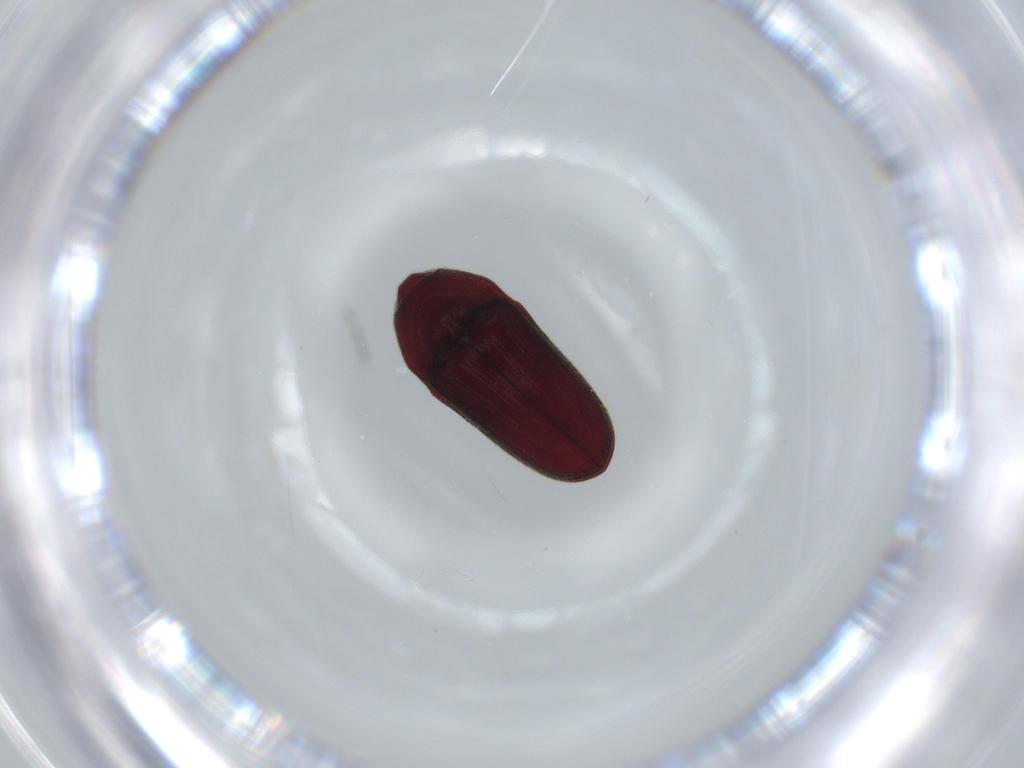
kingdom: Animalia
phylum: Arthropoda
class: Insecta
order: Coleoptera
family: Throscidae
